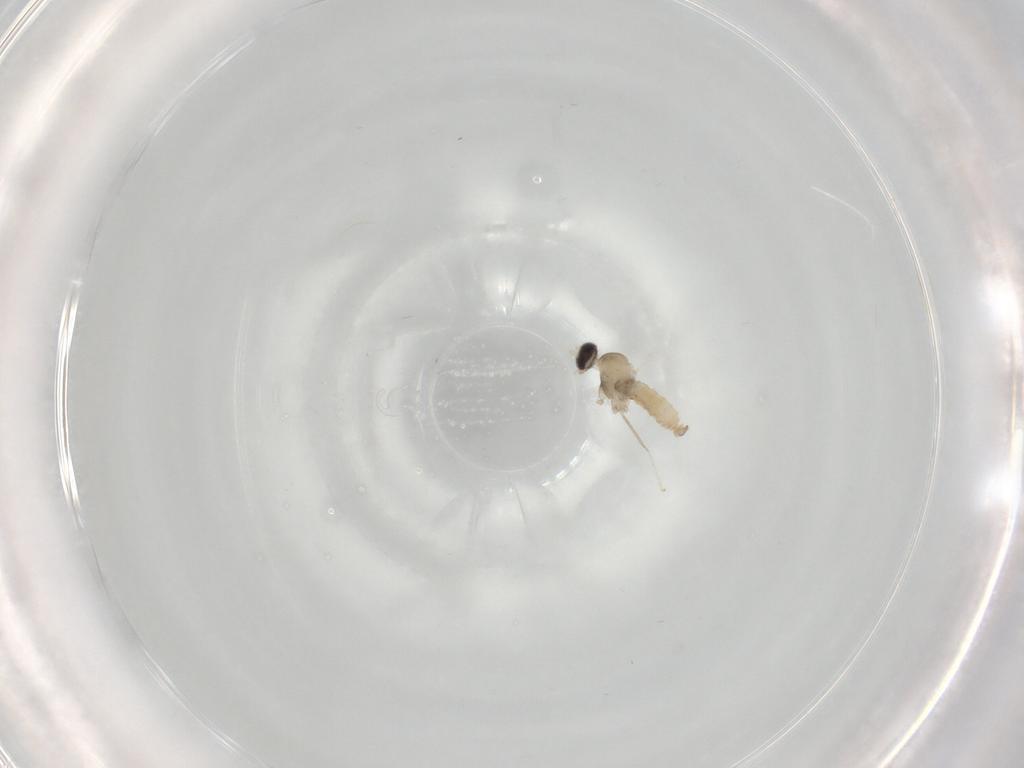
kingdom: Animalia
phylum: Arthropoda
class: Insecta
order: Diptera
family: Cecidomyiidae
